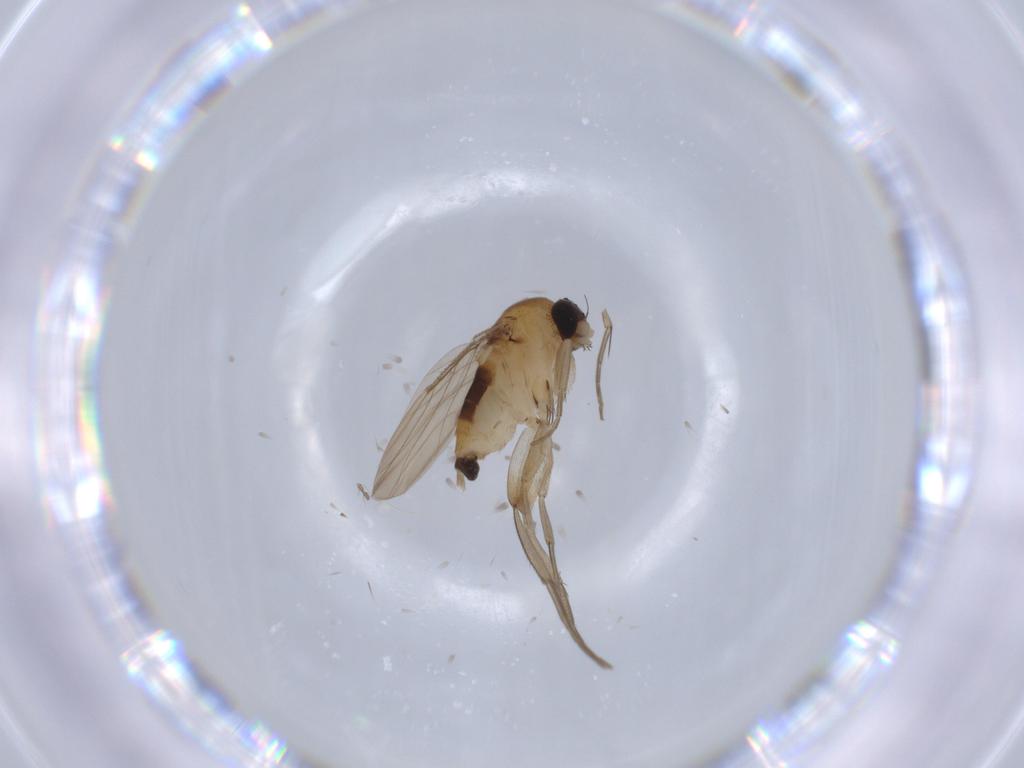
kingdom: Animalia
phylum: Arthropoda
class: Insecta
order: Diptera
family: Phoridae
